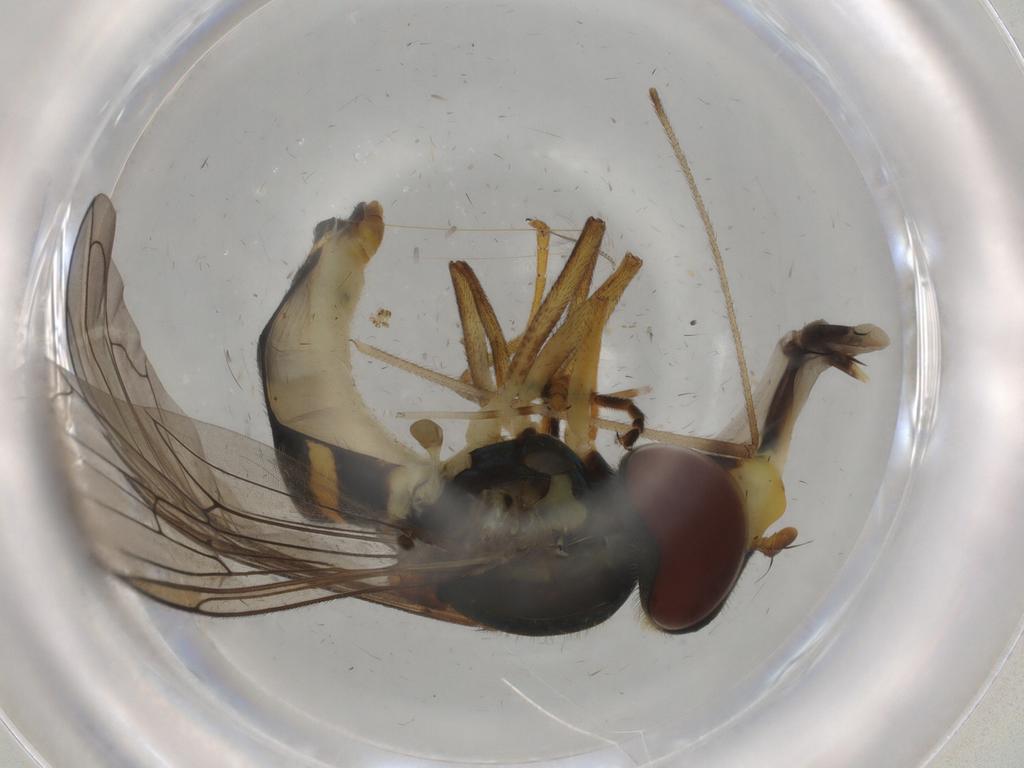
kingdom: Animalia
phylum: Arthropoda
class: Insecta
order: Diptera
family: Syrphidae
